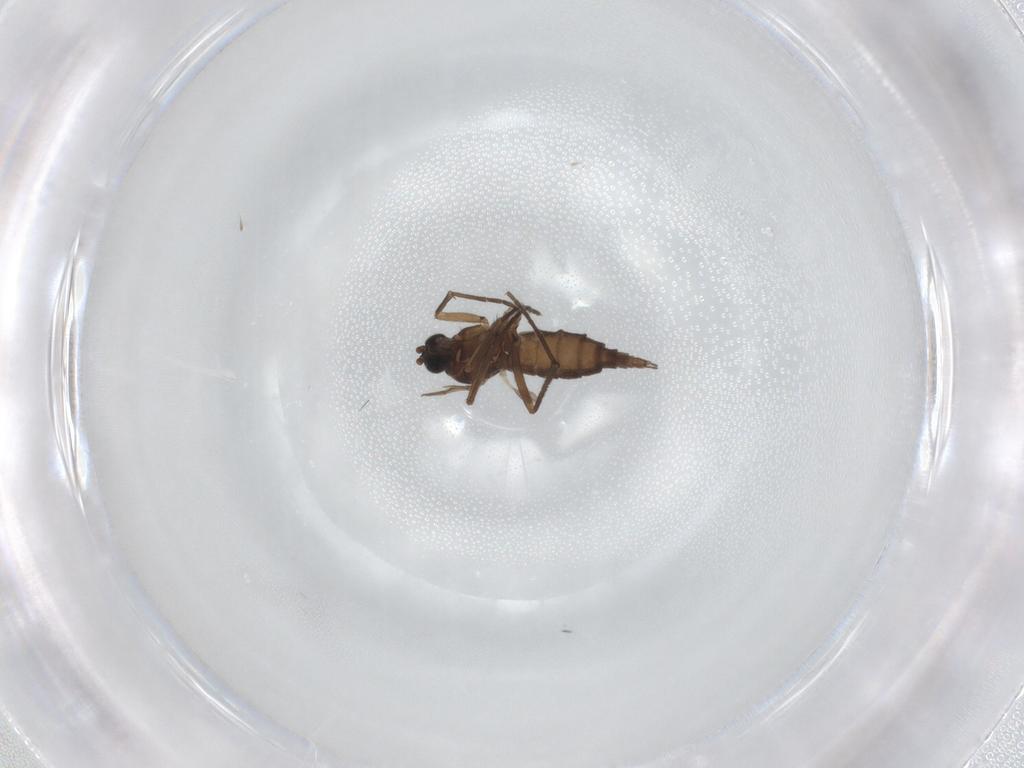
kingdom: Animalia
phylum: Arthropoda
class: Insecta
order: Diptera
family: Sciaridae
